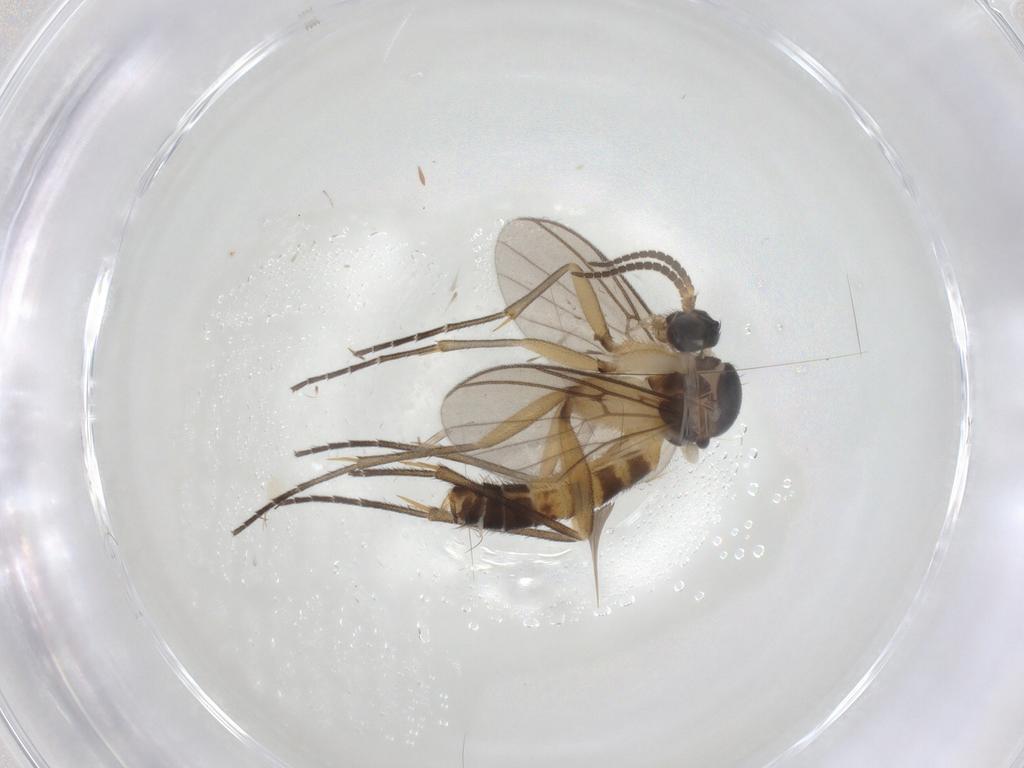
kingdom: Animalia
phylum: Arthropoda
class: Insecta
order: Diptera
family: Mycetophilidae
